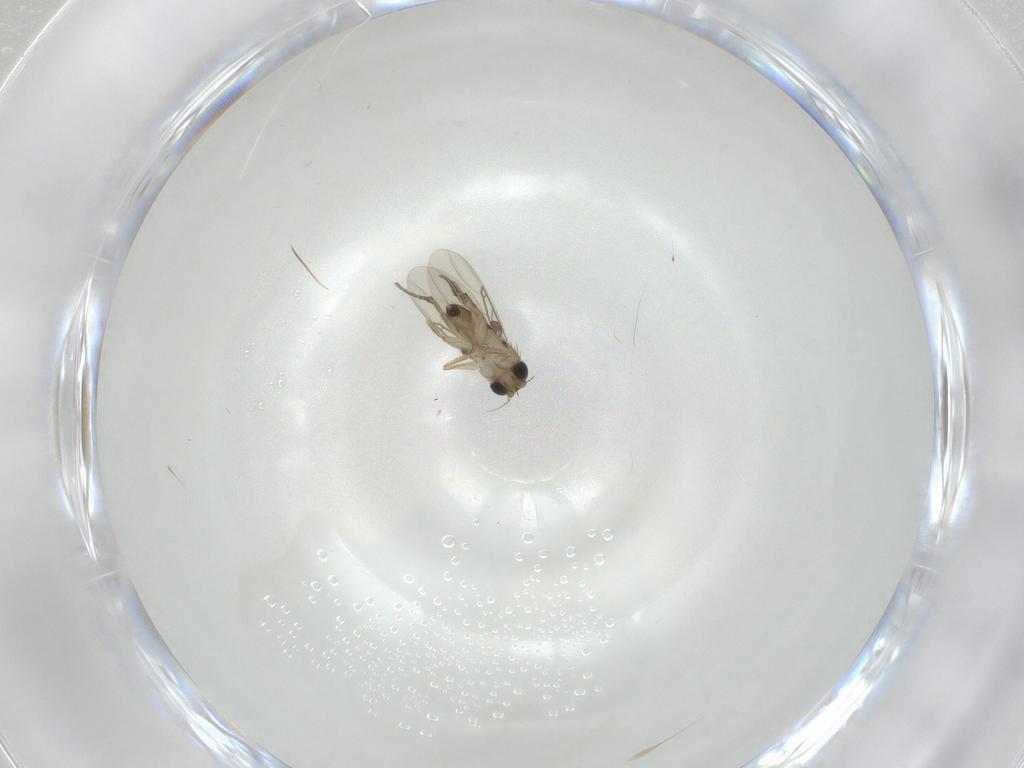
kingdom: Animalia
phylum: Arthropoda
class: Insecta
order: Diptera
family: Phoridae
